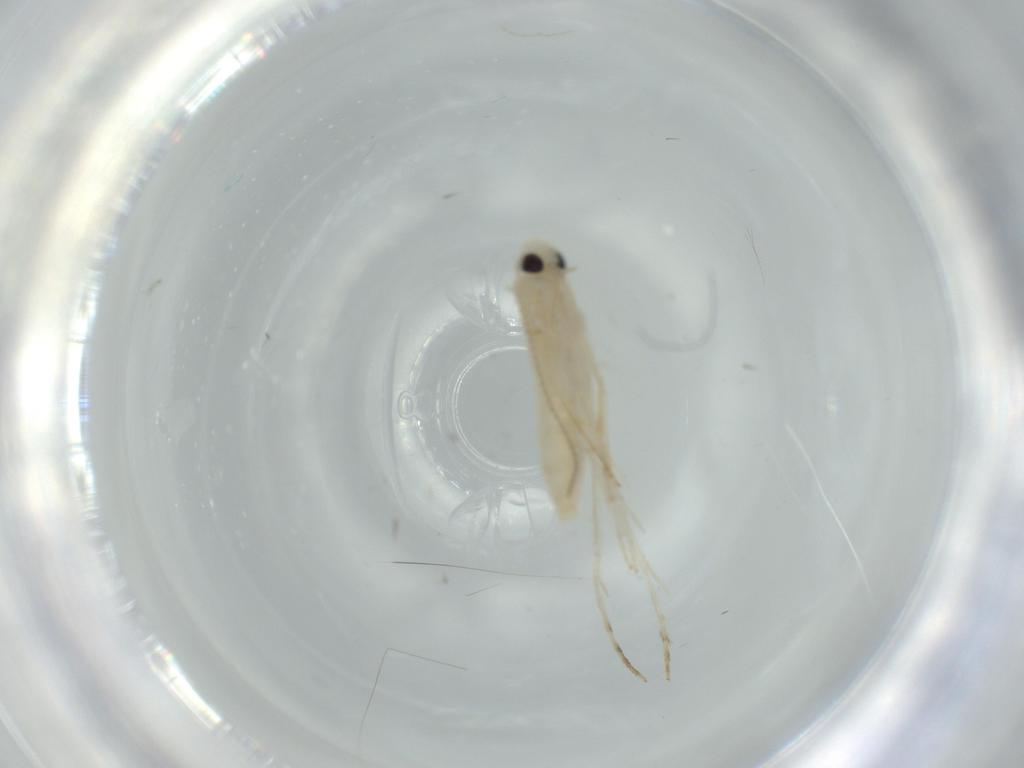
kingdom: Animalia
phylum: Arthropoda
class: Insecta
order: Lepidoptera
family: Gracillariidae
